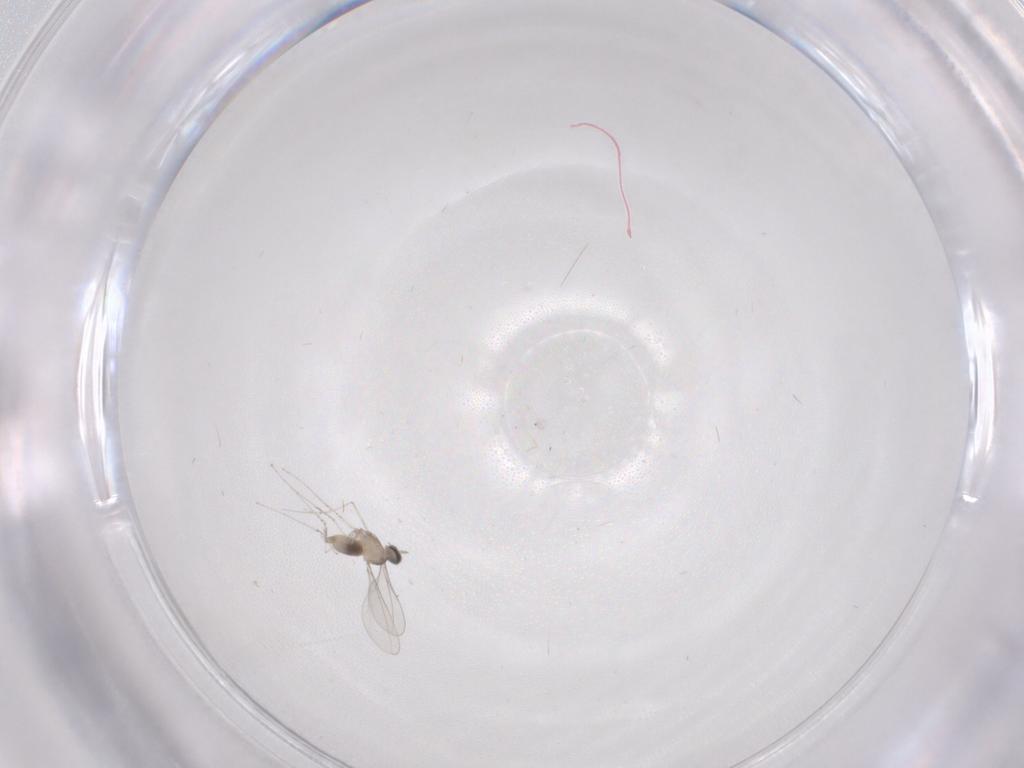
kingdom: Animalia
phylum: Arthropoda
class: Insecta
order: Diptera
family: Cecidomyiidae
